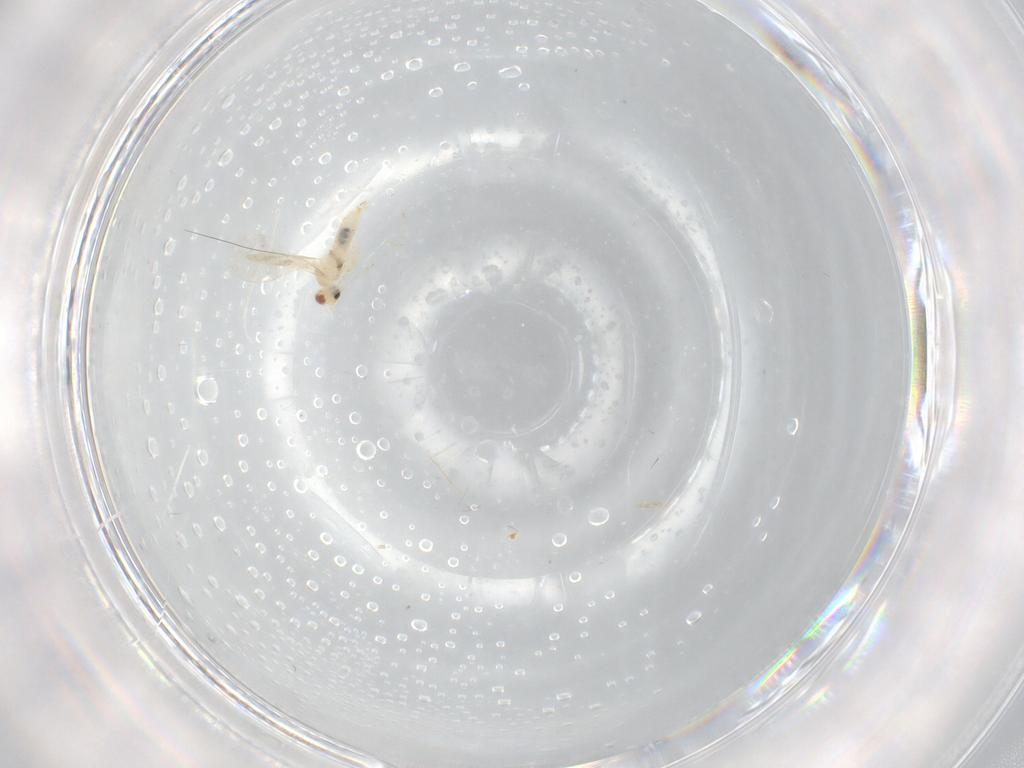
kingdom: Animalia
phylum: Arthropoda
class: Insecta
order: Diptera
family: Cecidomyiidae
